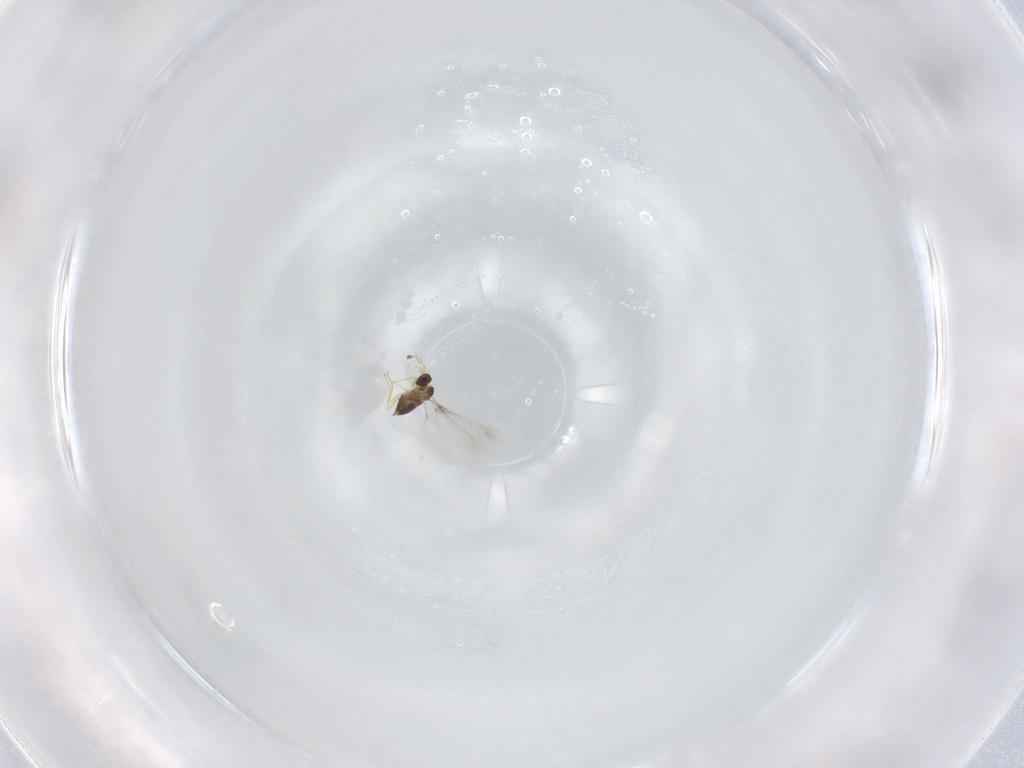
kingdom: Animalia
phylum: Arthropoda
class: Insecta
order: Hymenoptera
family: Mymaridae
